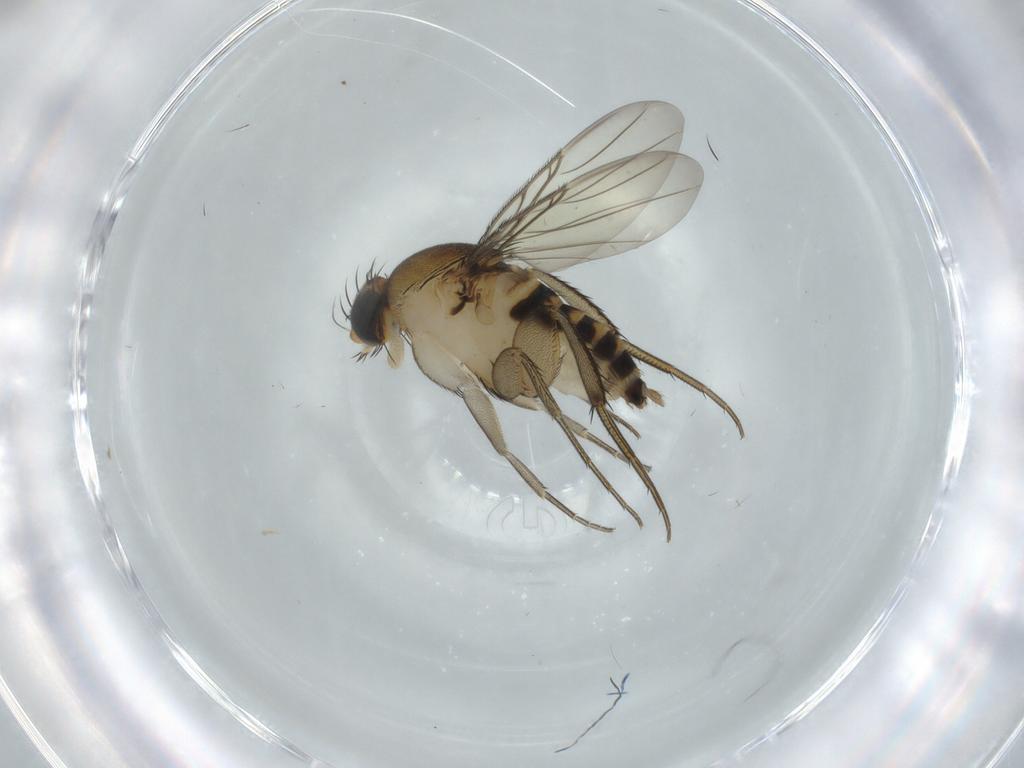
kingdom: Animalia
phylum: Arthropoda
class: Insecta
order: Diptera
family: Phoridae
